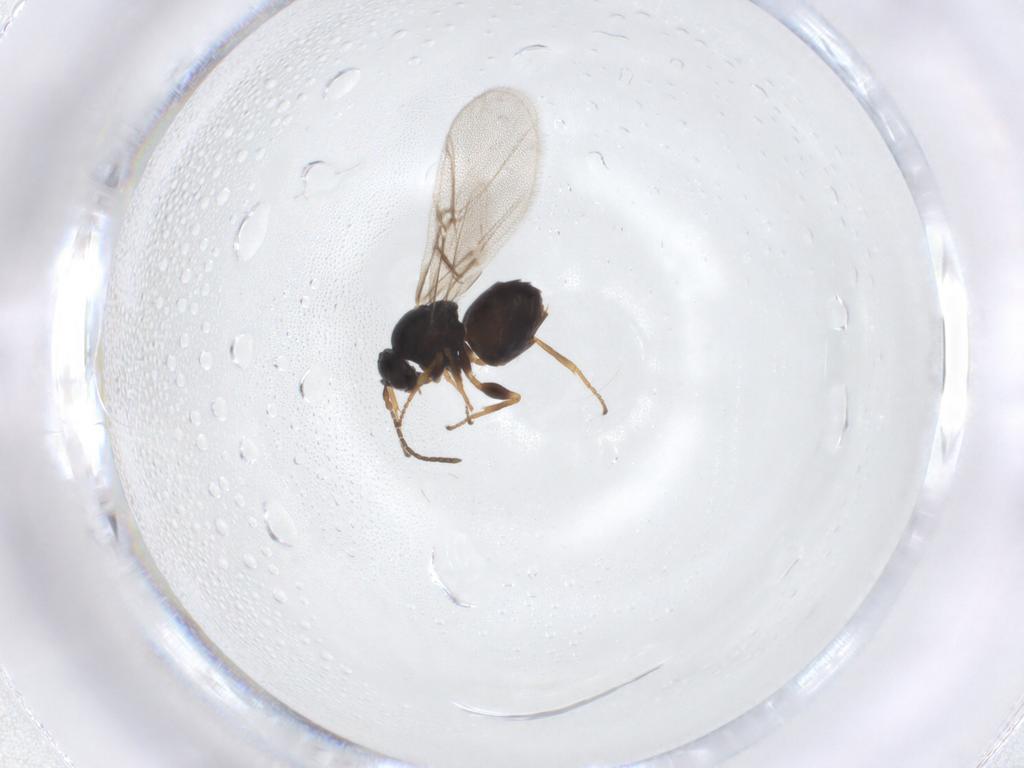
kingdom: Animalia
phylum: Arthropoda
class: Insecta
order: Hymenoptera
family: Cynipidae
